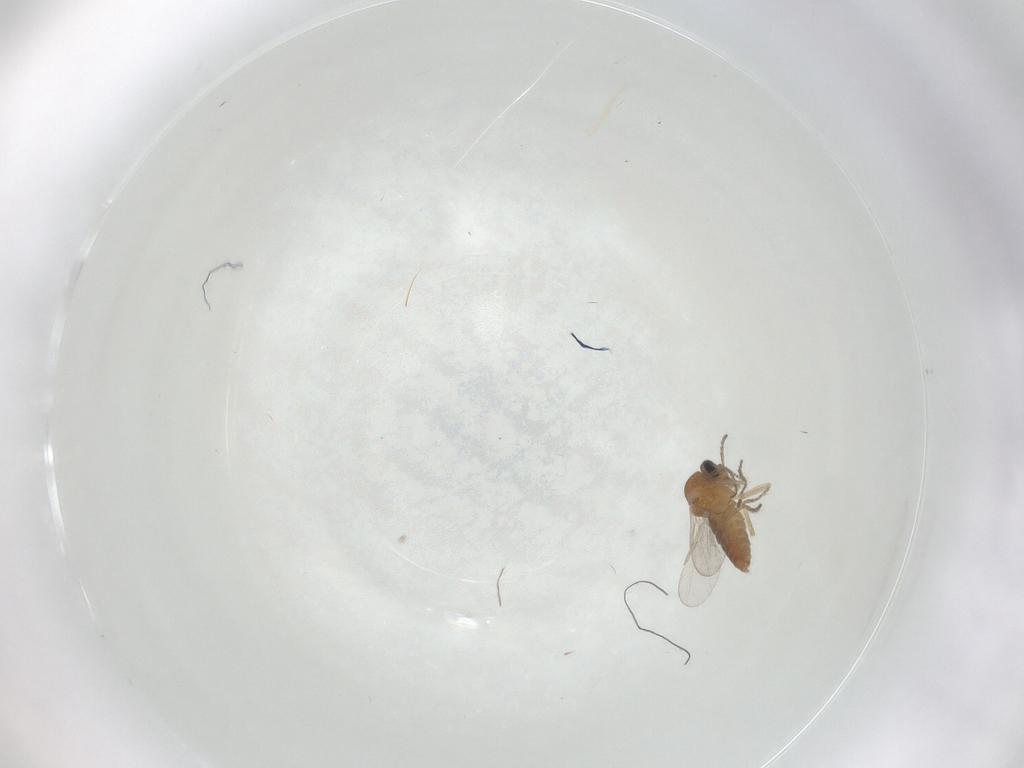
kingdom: Animalia
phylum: Arthropoda
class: Insecta
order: Diptera
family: Ceratopogonidae
